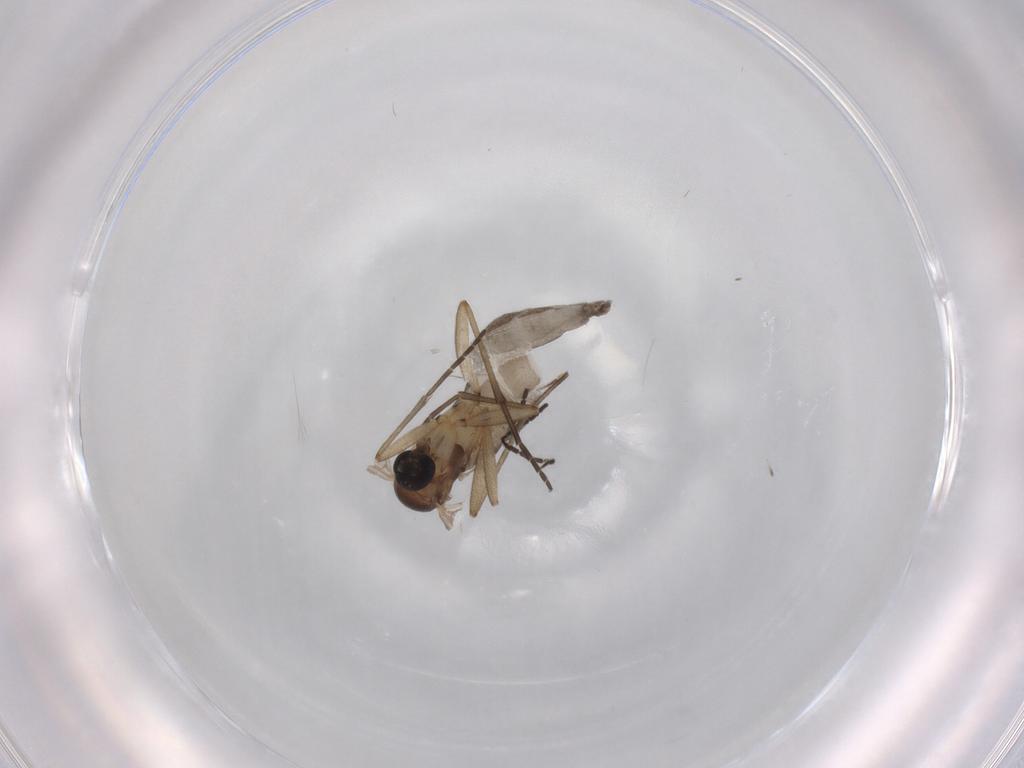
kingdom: Animalia
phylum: Arthropoda
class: Insecta
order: Diptera
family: Sciaridae
